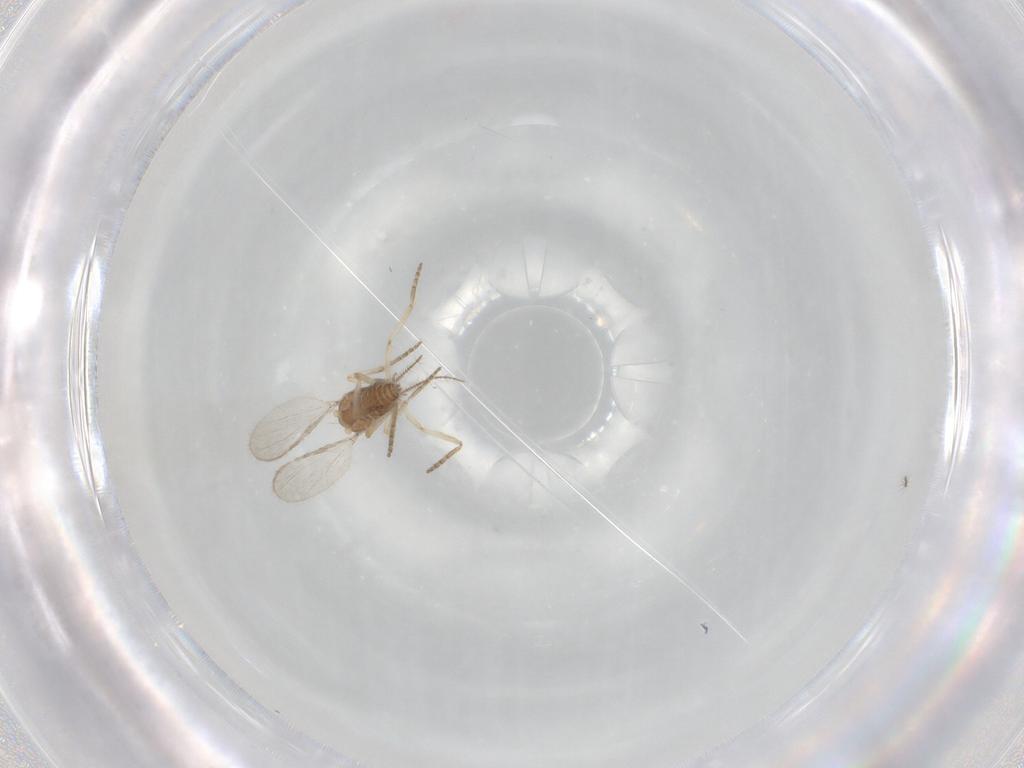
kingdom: Animalia
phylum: Arthropoda
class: Insecta
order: Diptera
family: Ceratopogonidae
